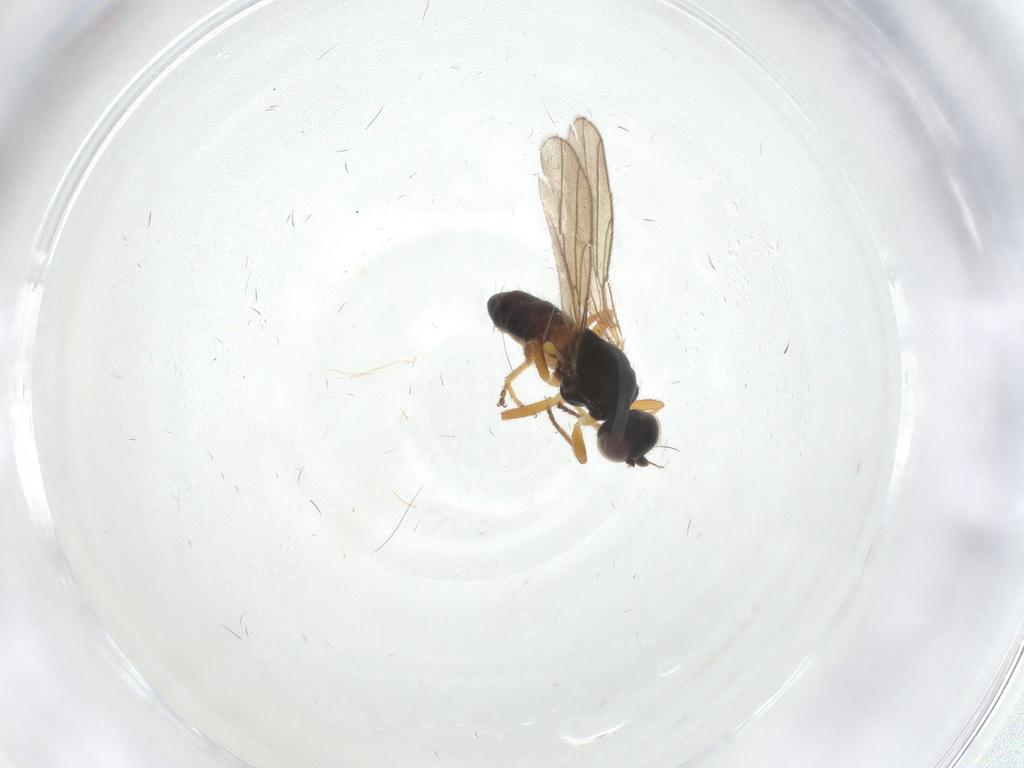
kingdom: Animalia
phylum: Arthropoda
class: Insecta
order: Diptera
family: Chloropidae
